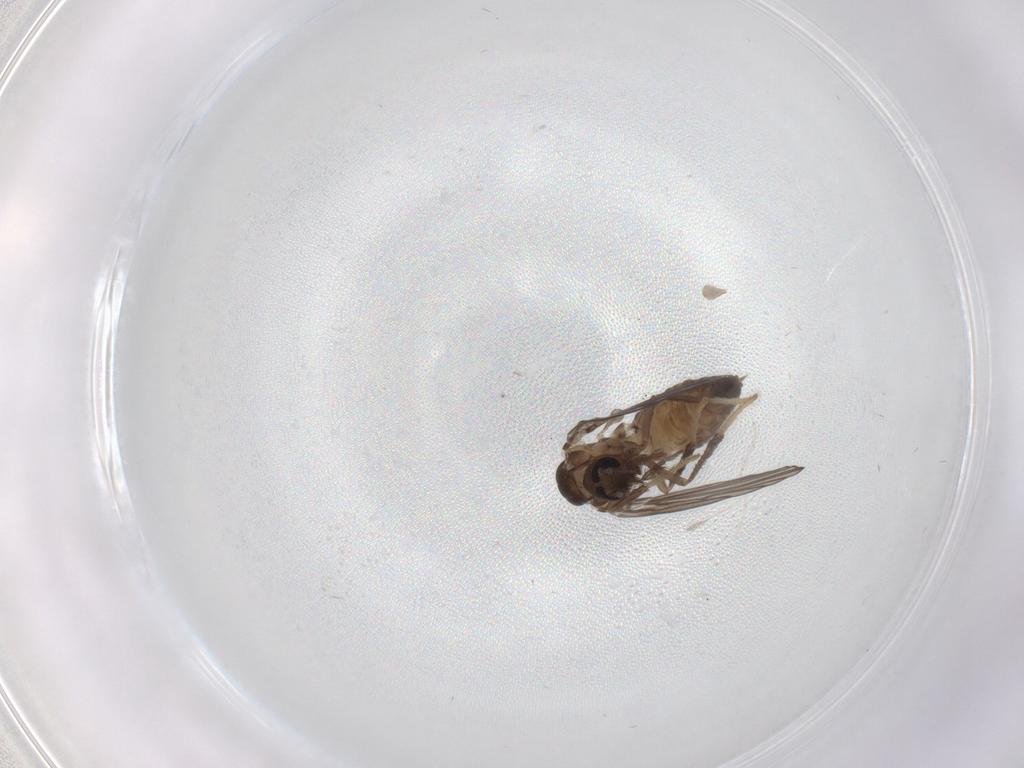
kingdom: Animalia
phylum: Arthropoda
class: Insecta
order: Diptera
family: Psychodidae
